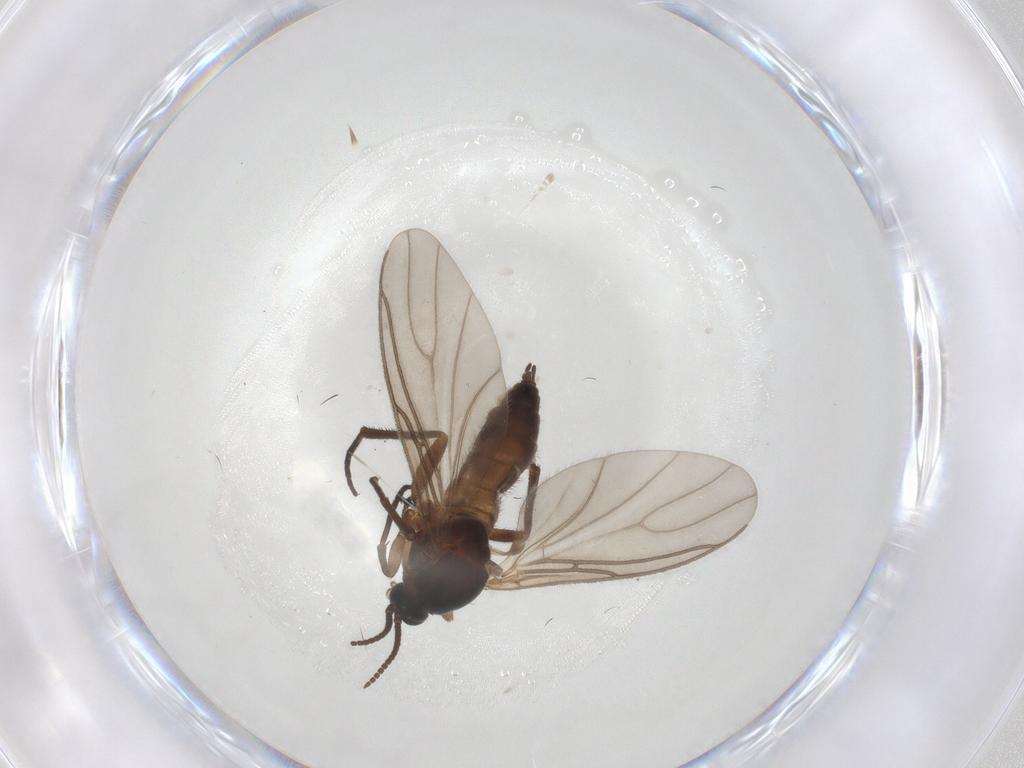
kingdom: Animalia
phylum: Arthropoda
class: Insecta
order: Diptera
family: Sciaridae
